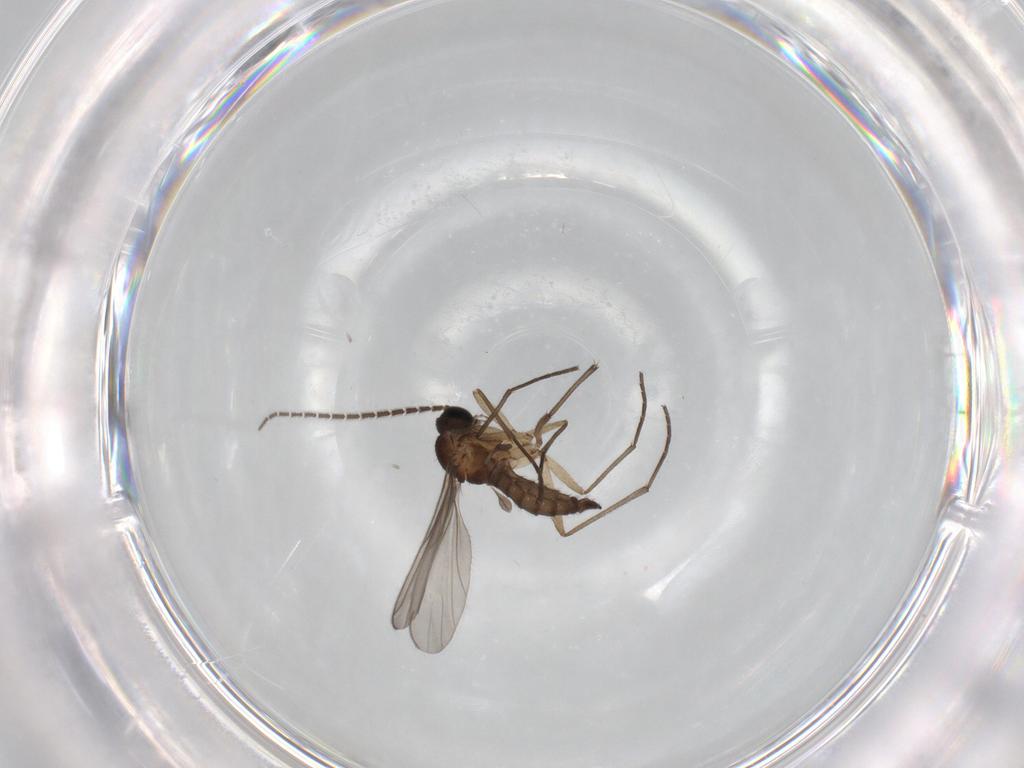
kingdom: Animalia
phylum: Arthropoda
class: Insecta
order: Diptera
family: Sciaridae
